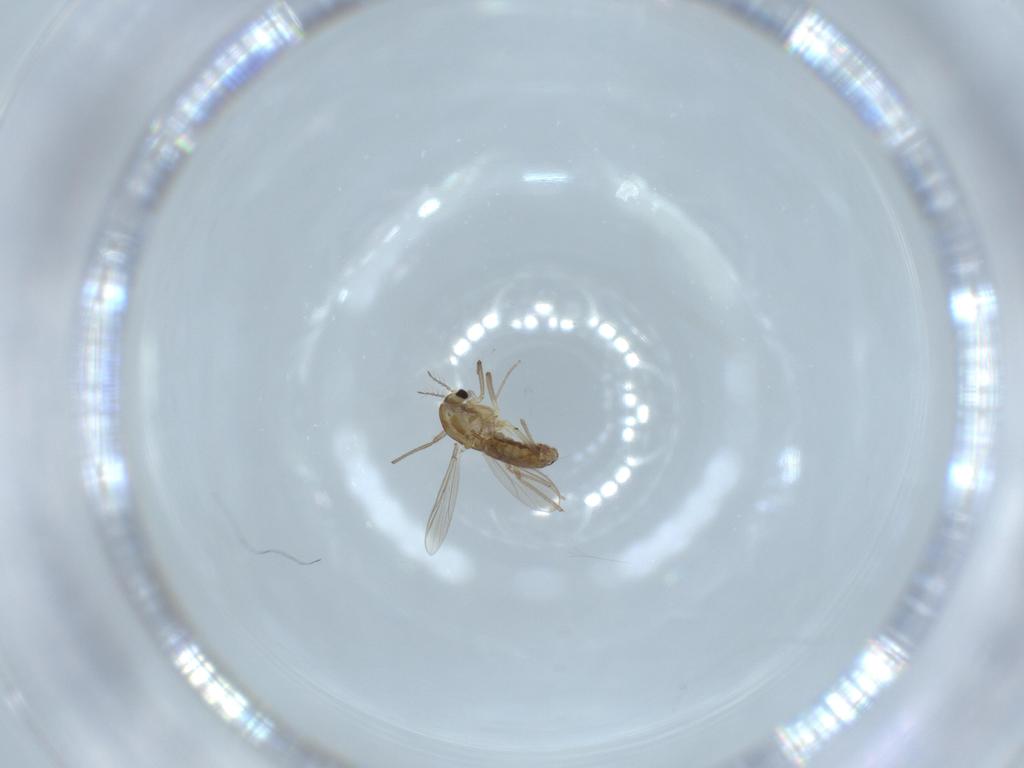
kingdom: Animalia
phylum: Arthropoda
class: Insecta
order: Diptera
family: Chironomidae
